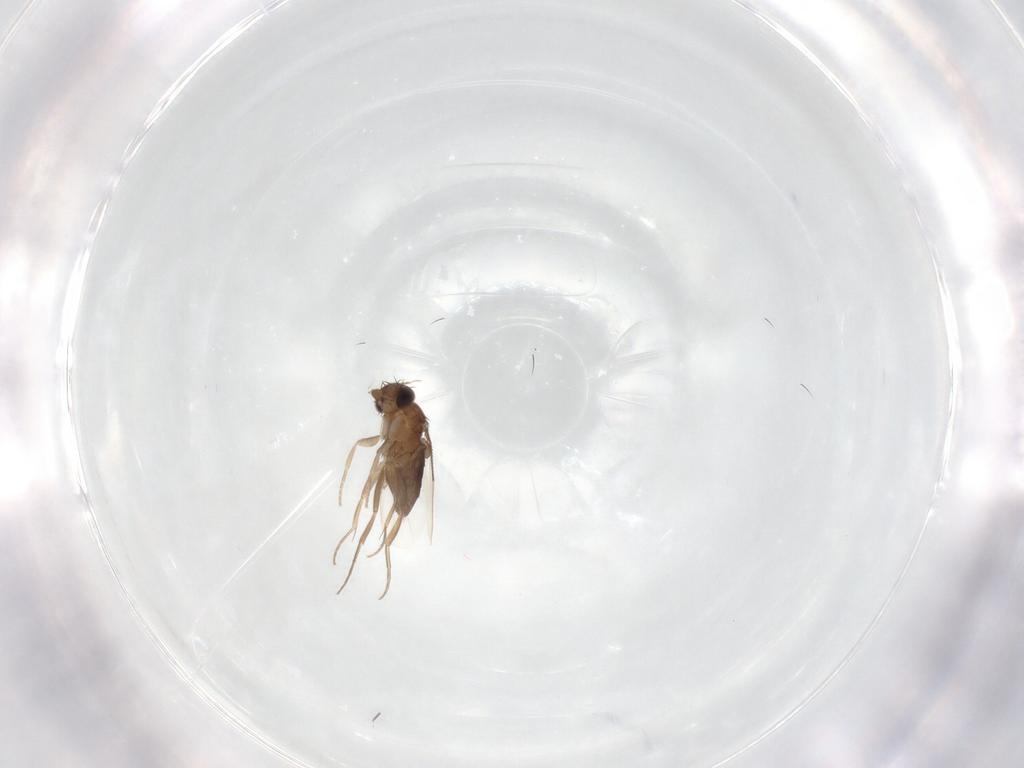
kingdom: Animalia
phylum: Arthropoda
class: Insecta
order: Diptera
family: Phoridae
